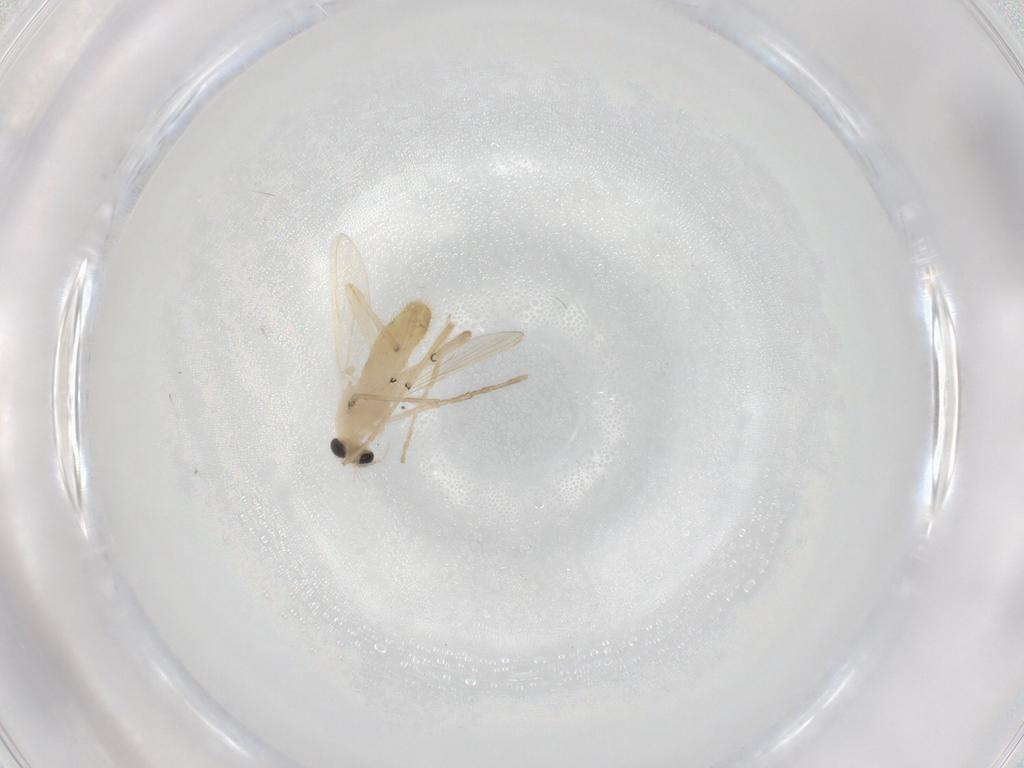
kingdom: Animalia
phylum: Arthropoda
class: Insecta
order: Diptera
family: Chironomidae
